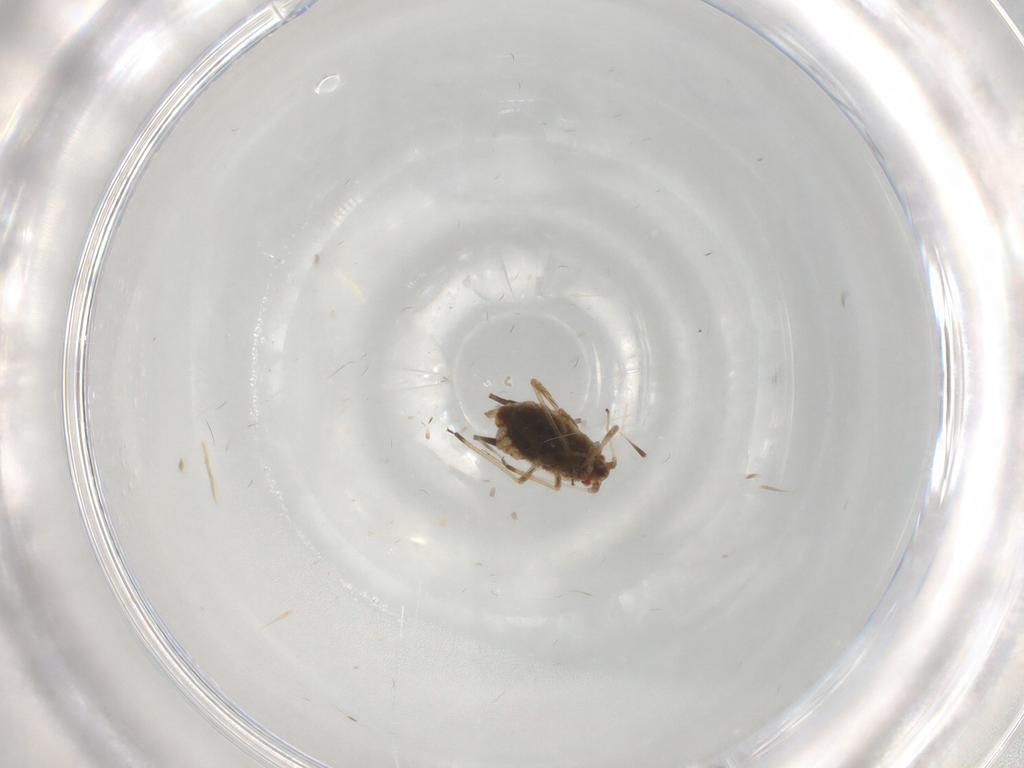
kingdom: Animalia
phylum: Arthropoda
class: Insecta
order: Hemiptera
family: Aphididae
